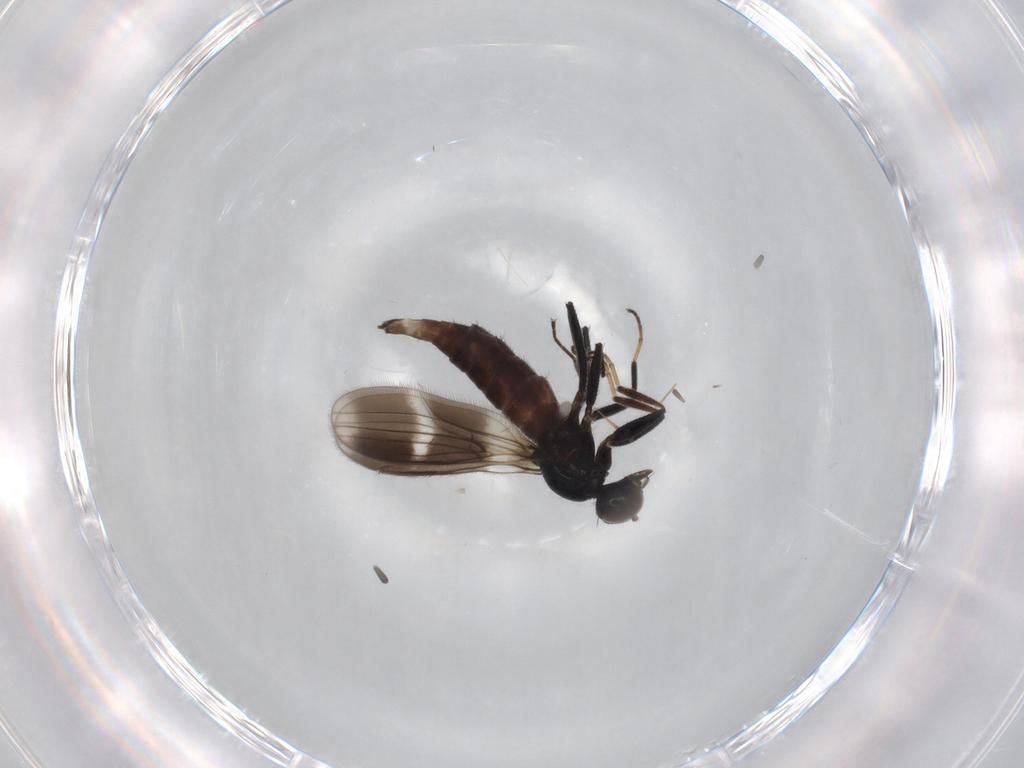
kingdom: Animalia
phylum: Arthropoda
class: Insecta
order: Diptera
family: Hybotidae
